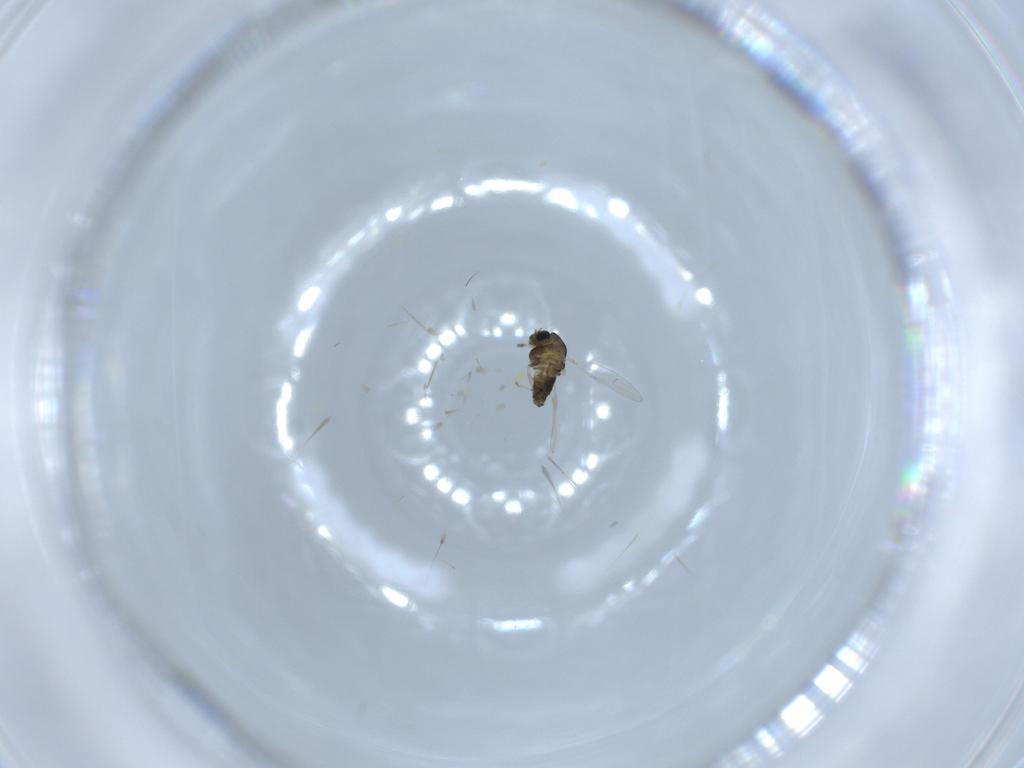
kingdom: Animalia
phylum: Arthropoda
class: Insecta
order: Diptera
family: Chironomidae
